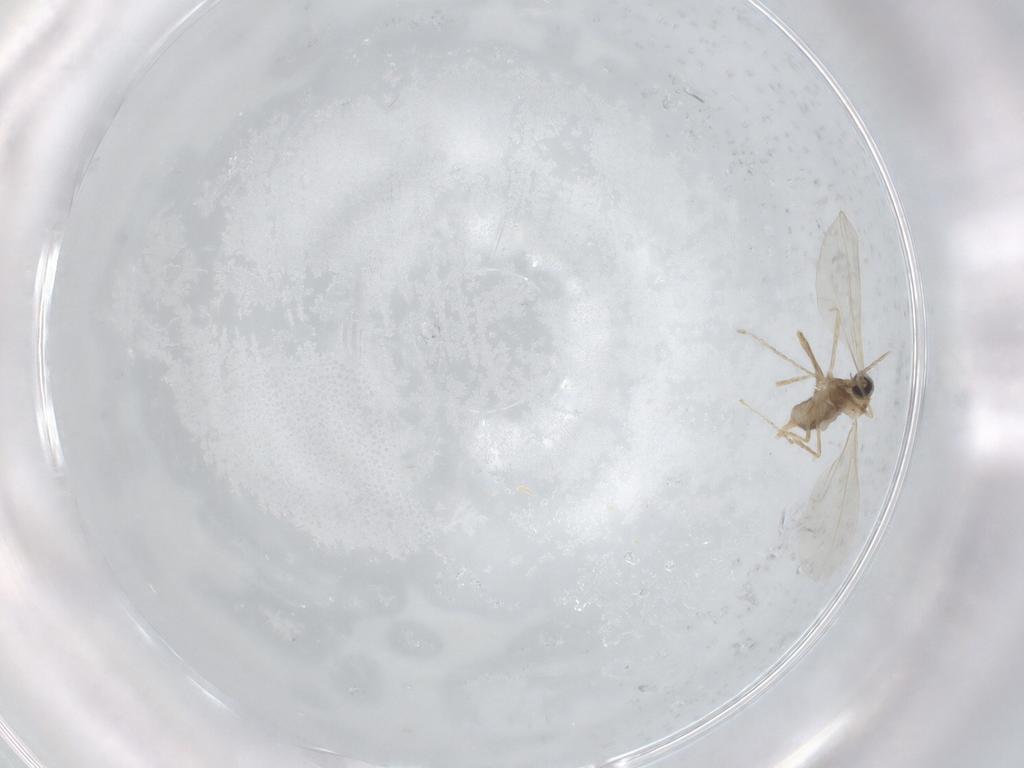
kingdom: Animalia
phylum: Arthropoda
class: Insecta
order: Diptera
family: Cecidomyiidae
